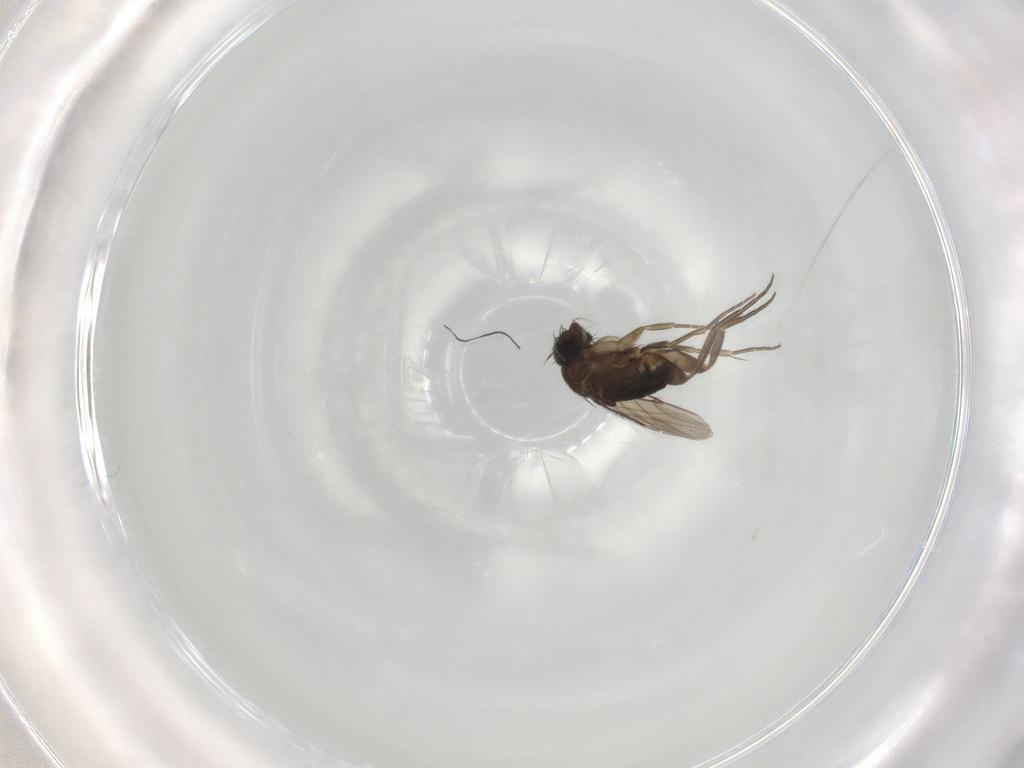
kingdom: Animalia
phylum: Arthropoda
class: Insecta
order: Diptera
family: Phoridae
